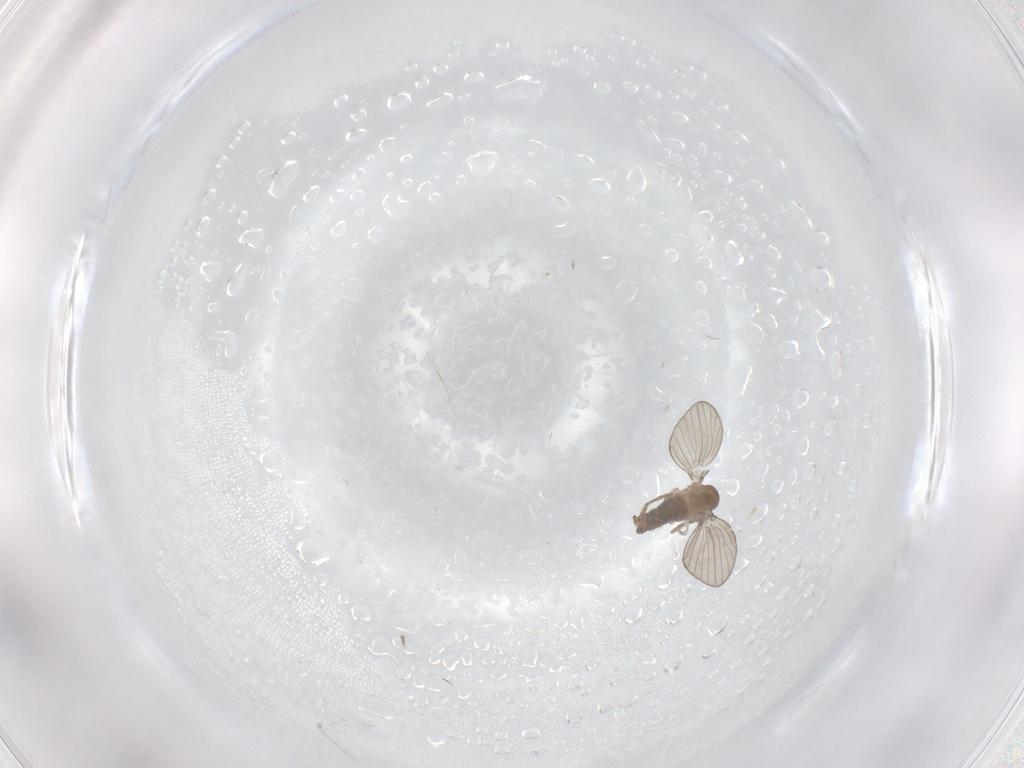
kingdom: Animalia
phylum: Arthropoda
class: Insecta
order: Diptera
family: Psychodidae
